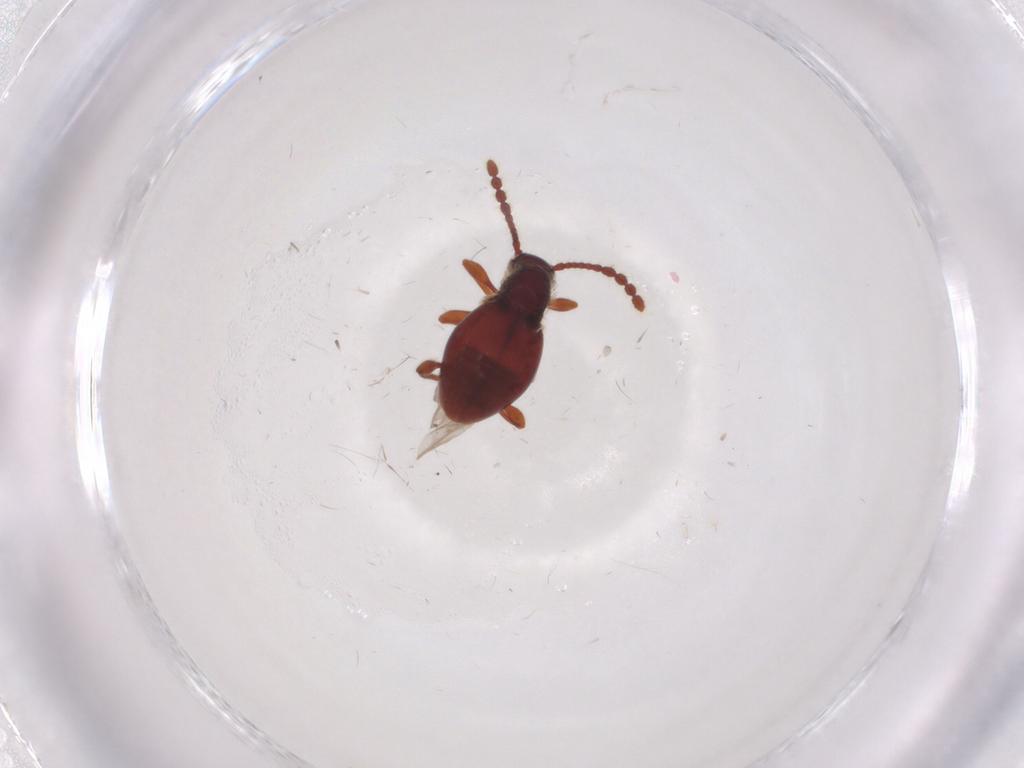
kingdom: Animalia
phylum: Arthropoda
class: Insecta
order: Coleoptera
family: Staphylinidae
